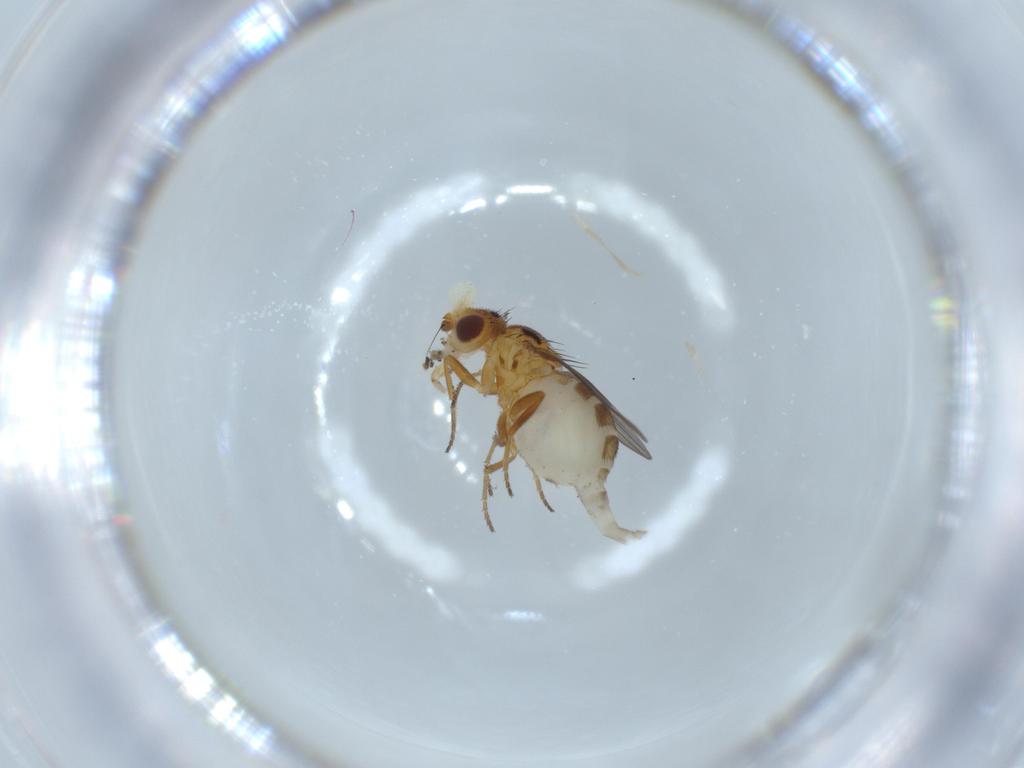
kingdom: Animalia
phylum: Arthropoda
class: Insecta
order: Diptera
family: Chloropidae
